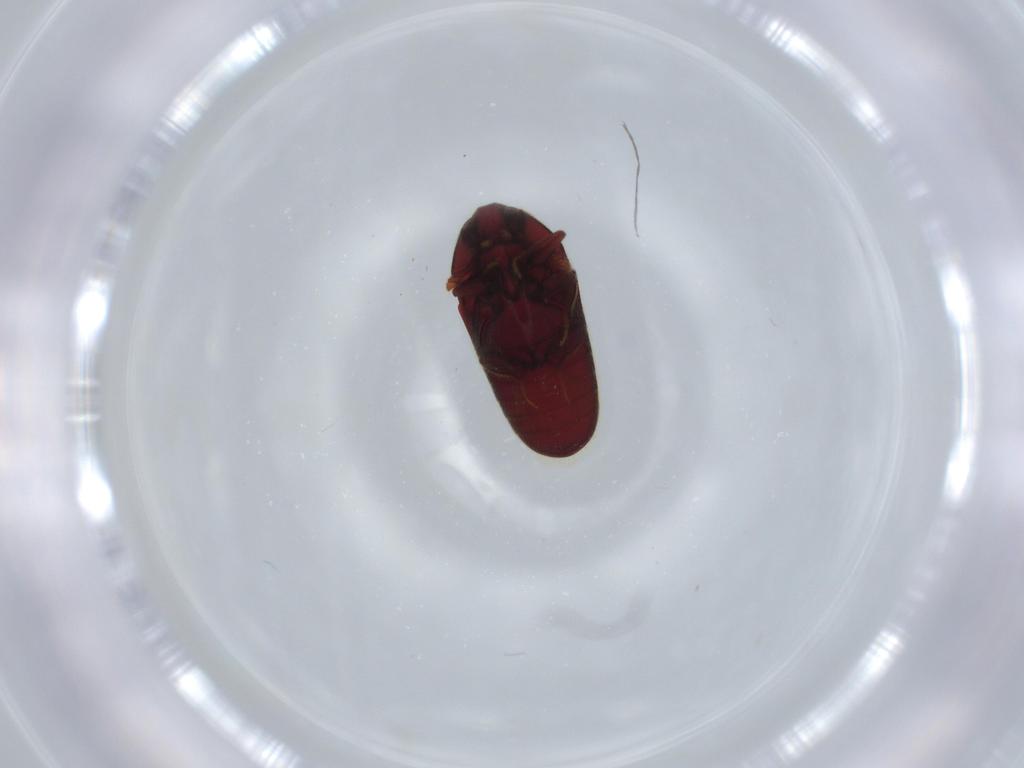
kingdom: Animalia
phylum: Arthropoda
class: Insecta
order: Coleoptera
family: Throscidae
